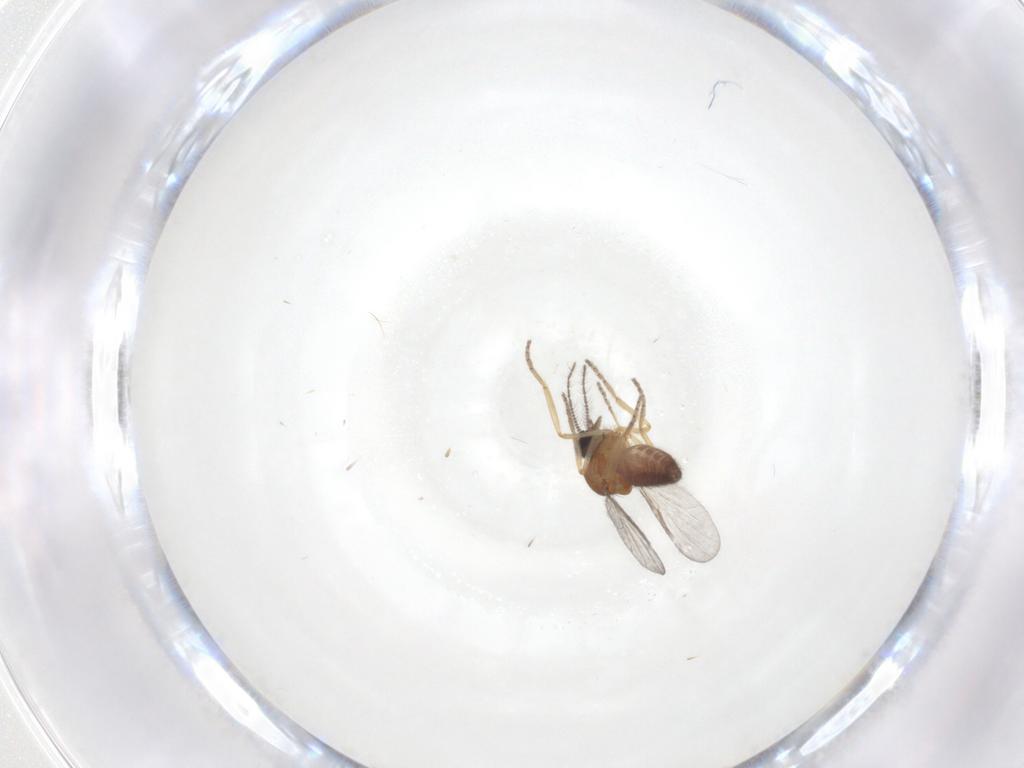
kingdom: Animalia
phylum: Arthropoda
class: Insecta
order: Diptera
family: Ceratopogonidae
